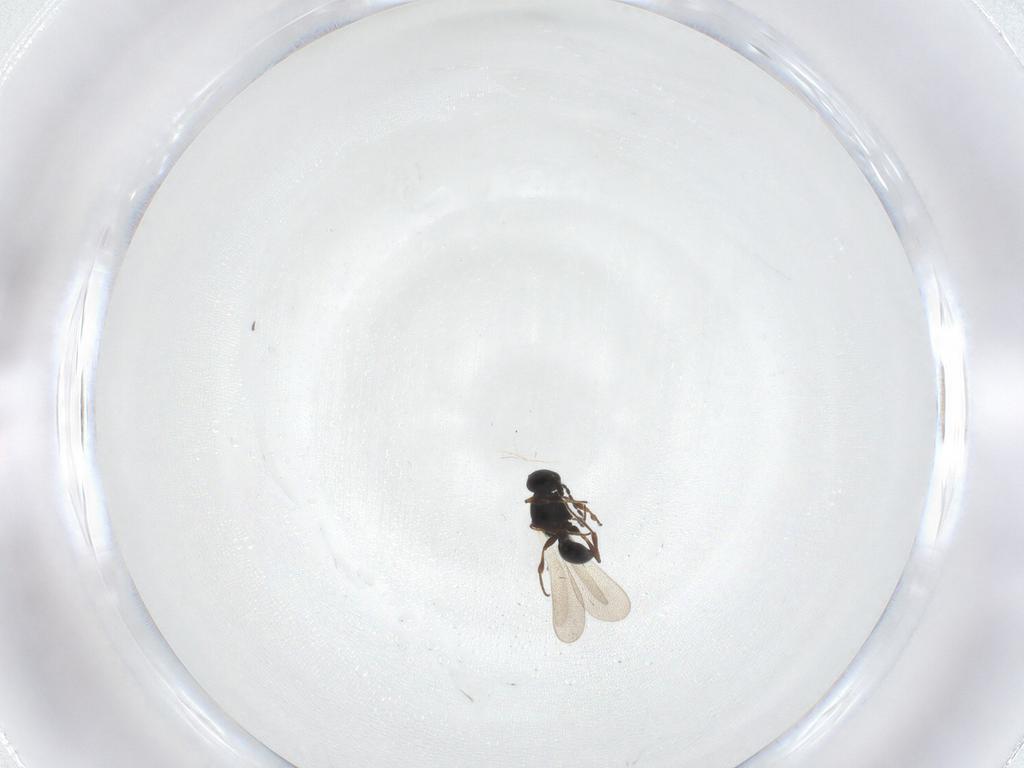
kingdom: Animalia
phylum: Arthropoda
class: Insecta
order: Hymenoptera
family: Platygastridae
